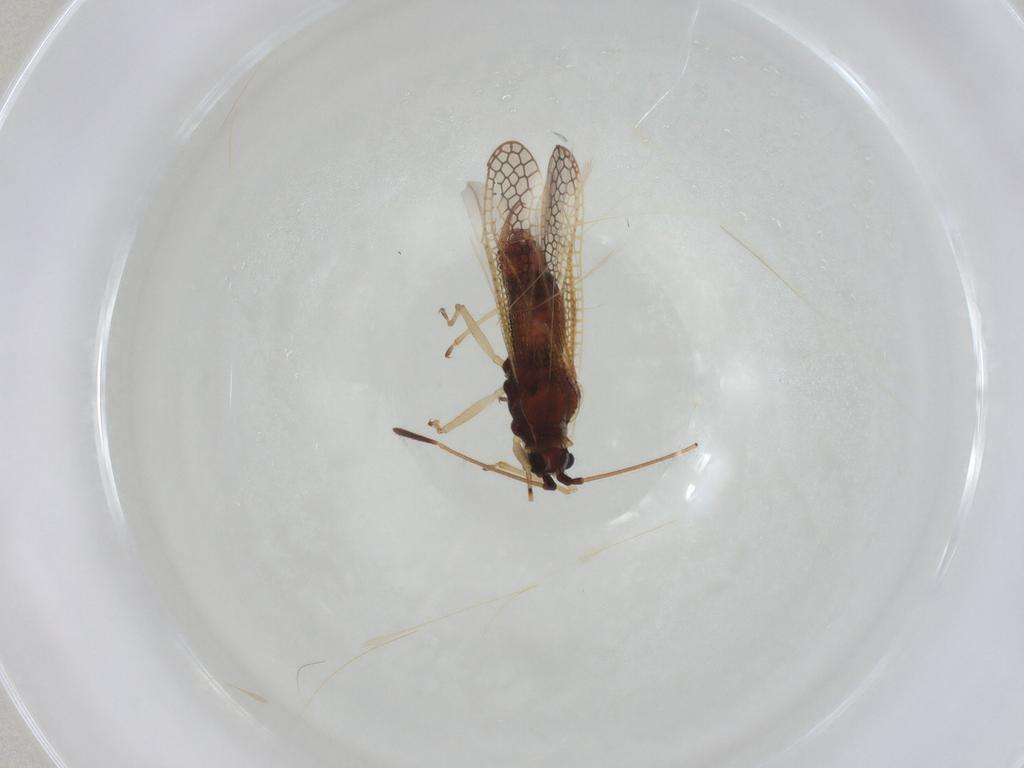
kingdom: Animalia
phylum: Arthropoda
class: Insecta
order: Hemiptera
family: Tingidae
